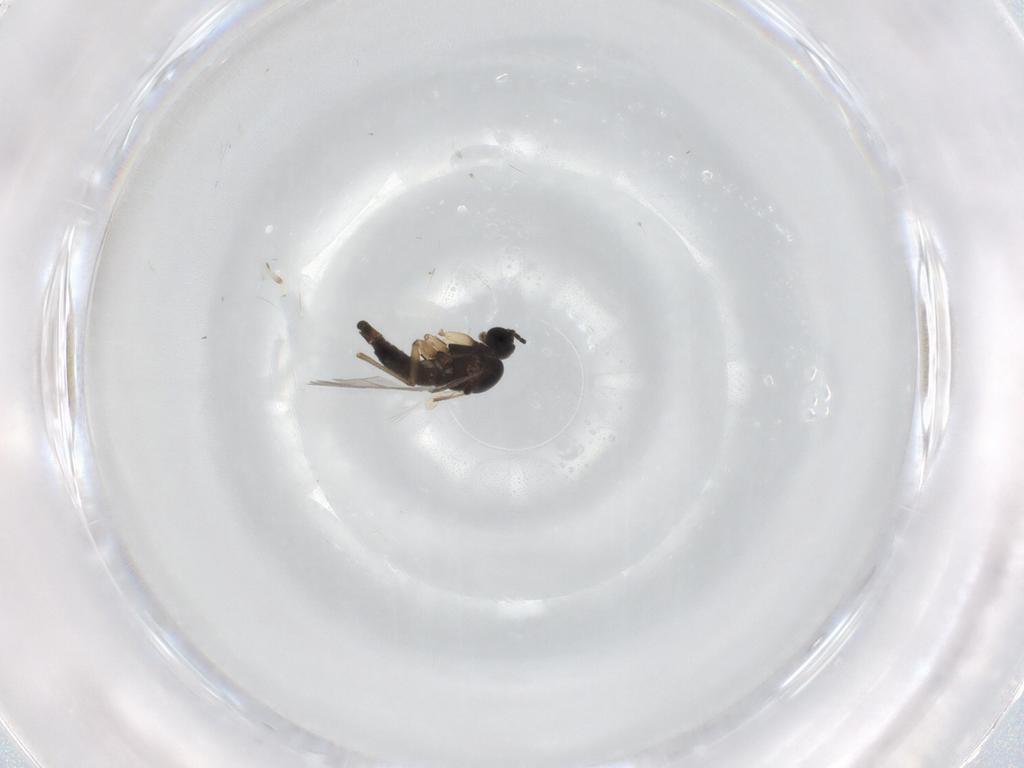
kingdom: Animalia
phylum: Arthropoda
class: Insecta
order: Diptera
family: Sciaridae
